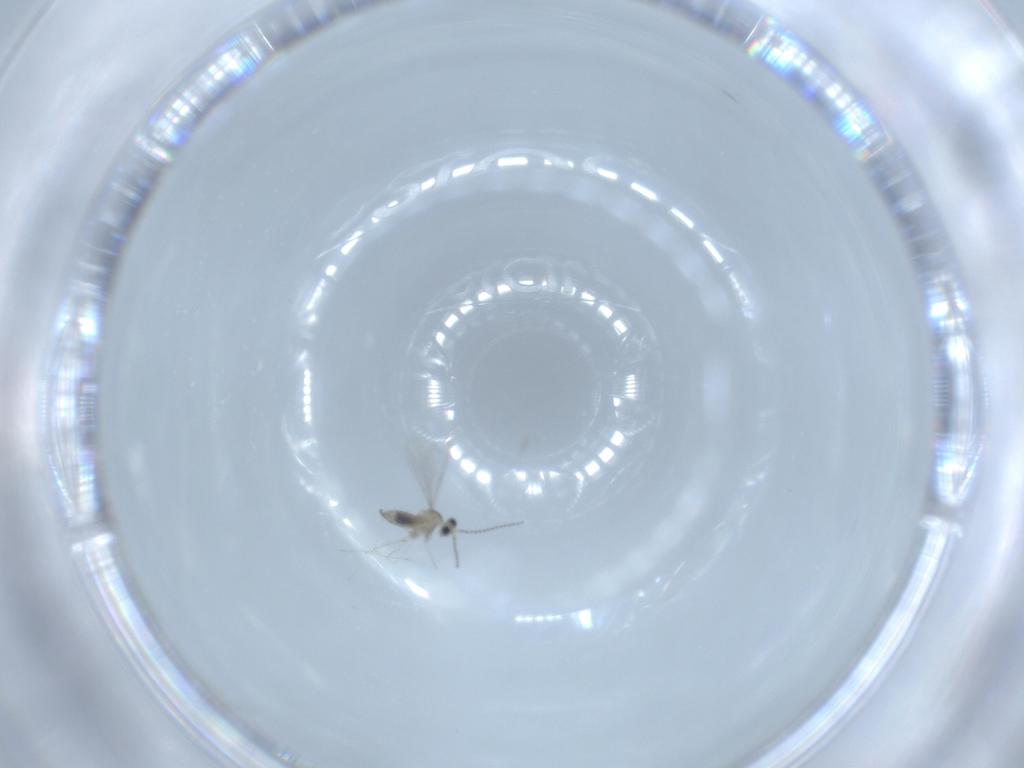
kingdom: Animalia
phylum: Arthropoda
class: Insecta
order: Diptera
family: Cecidomyiidae
